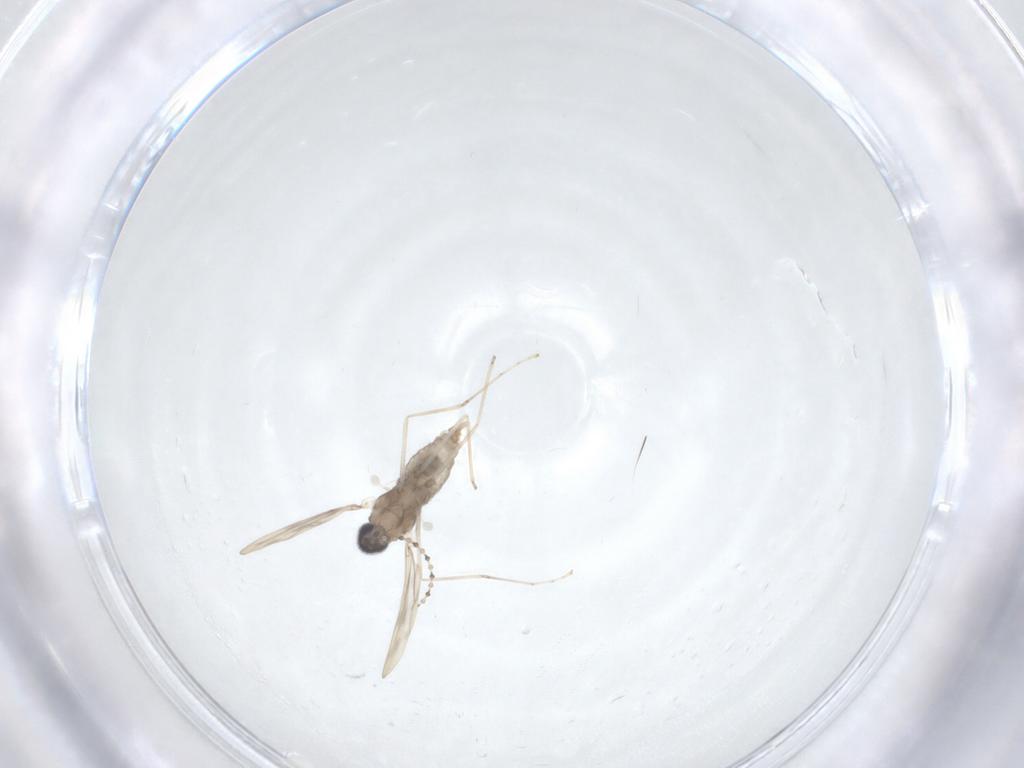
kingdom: Animalia
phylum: Arthropoda
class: Insecta
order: Diptera
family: Cecidomyiidae
